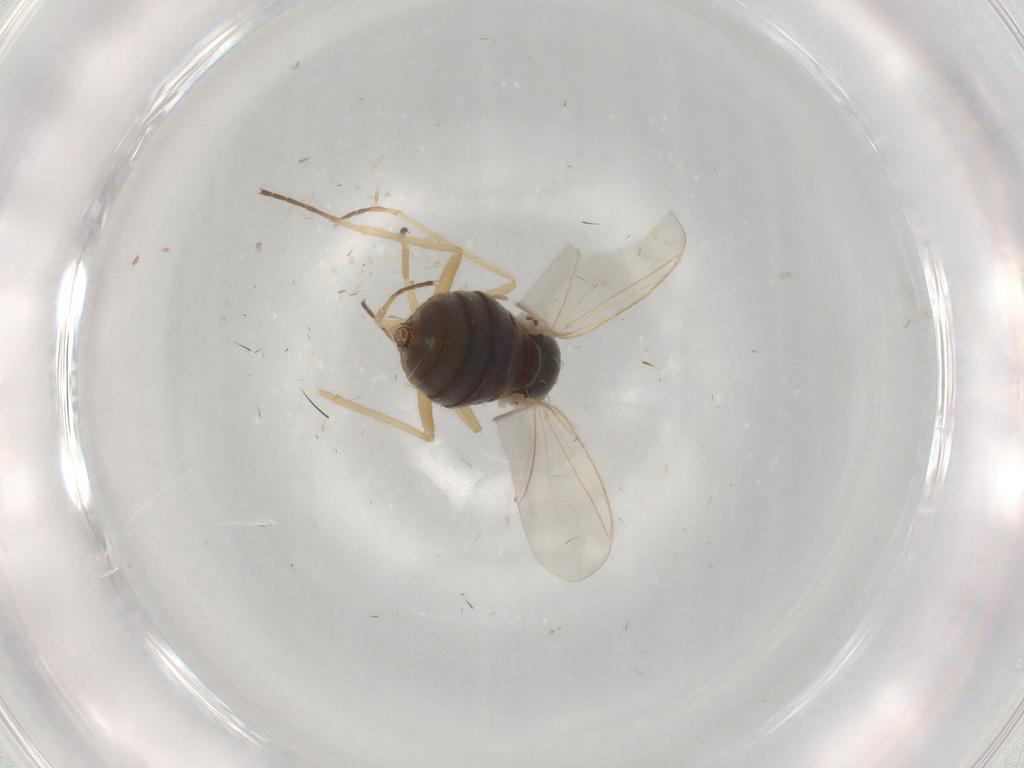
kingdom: Animalia
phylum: Arthropoda
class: Insecta
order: Diptera
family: Dolichopodidae
